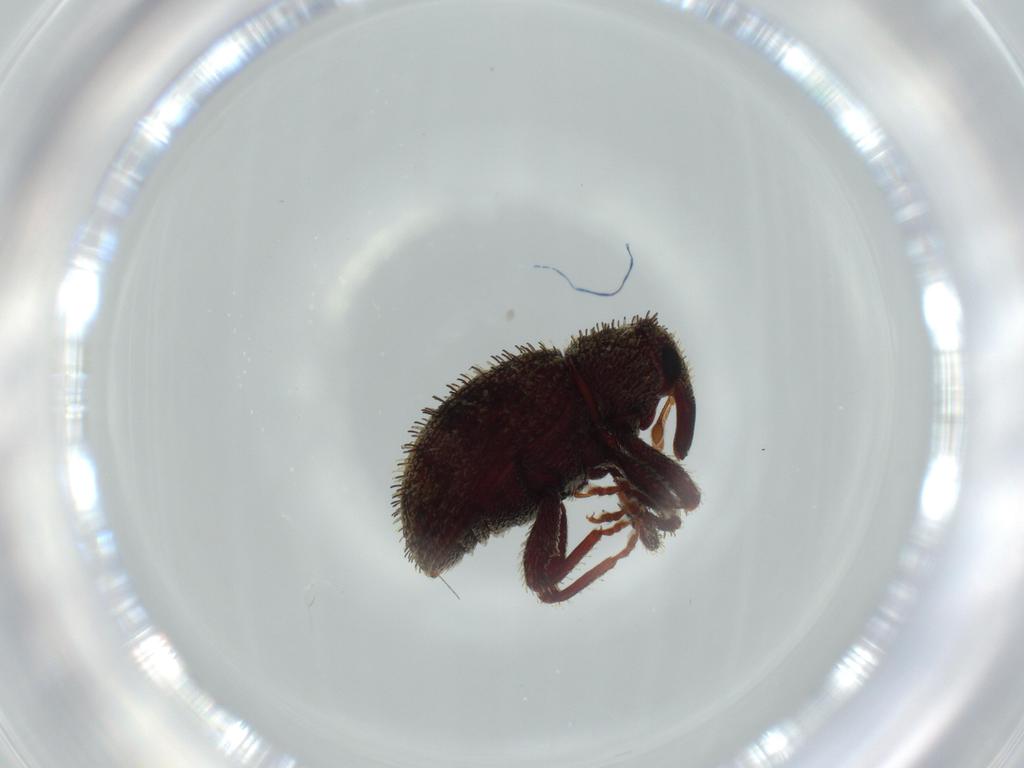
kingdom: Animalia
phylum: Arthropoda
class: Insecta
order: Coleoptera
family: Curculionidae
